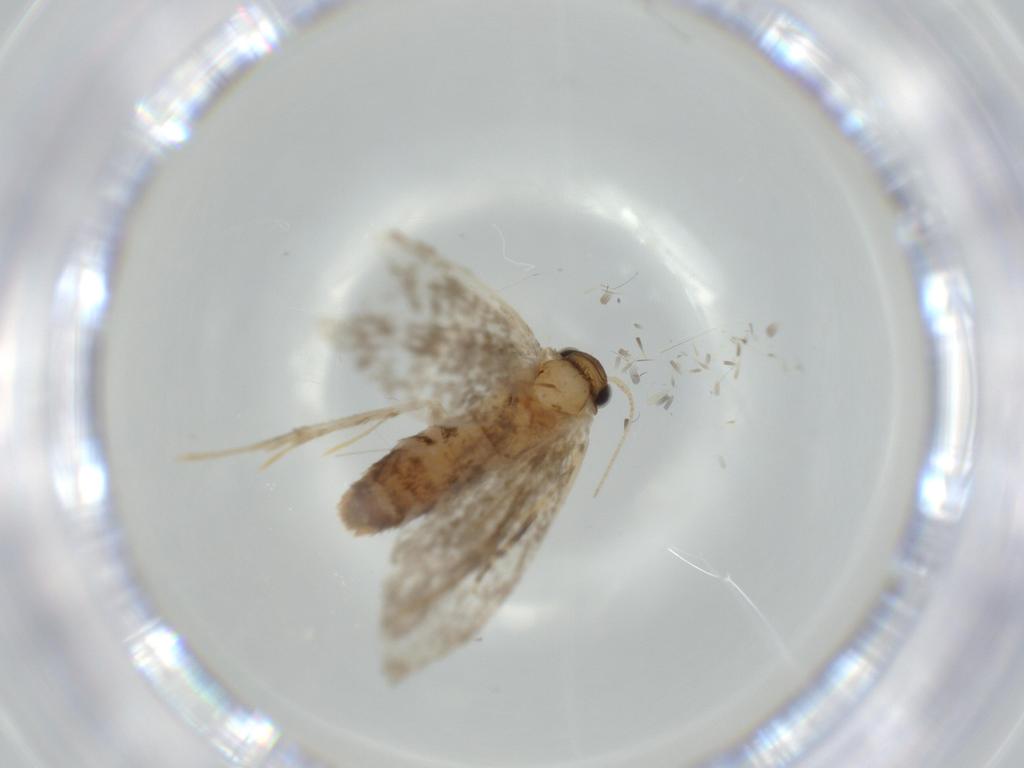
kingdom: Animalia
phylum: Arthropoda
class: Insecta
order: Lepidoptera
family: Tineidae
